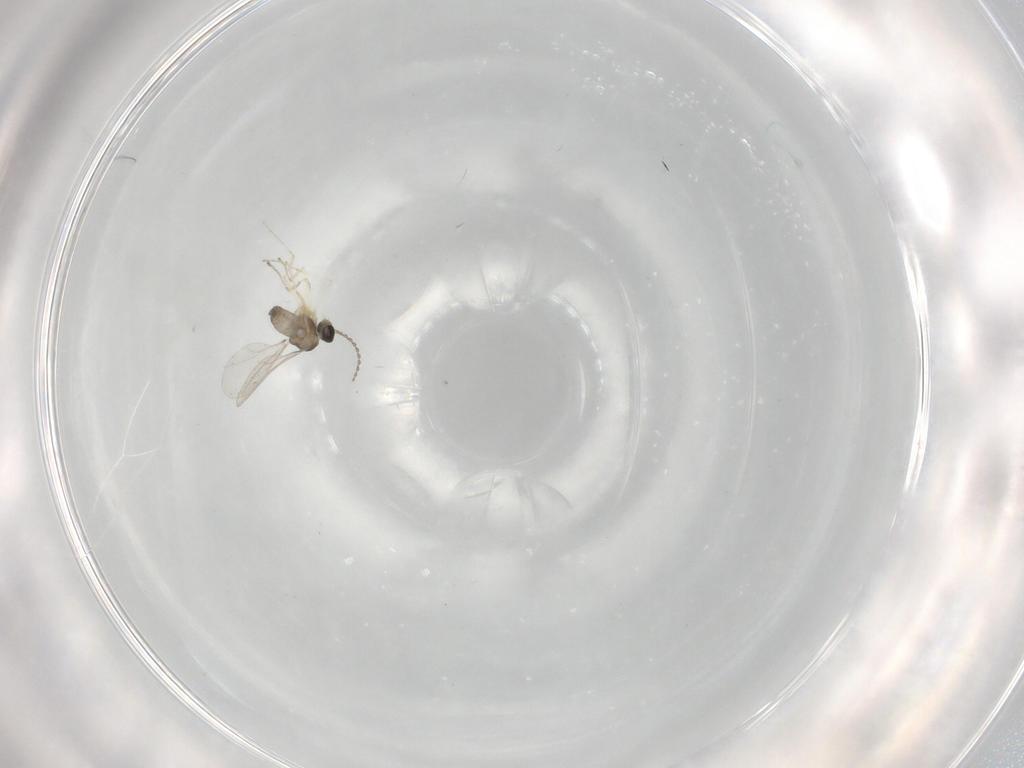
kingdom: Animalia
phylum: Arthropoda
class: Insecta
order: Diptera
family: Cecidomyiidae
